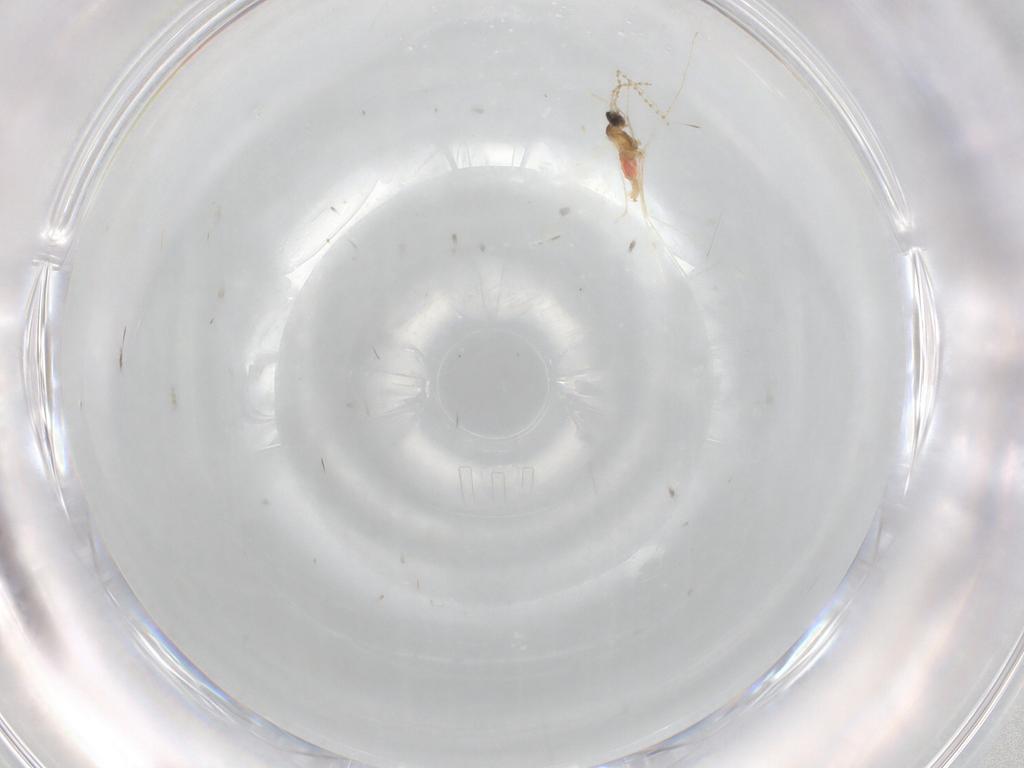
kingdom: Animalia
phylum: Arthropoda
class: Insecta
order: Diptera
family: Cecidomyiidae
